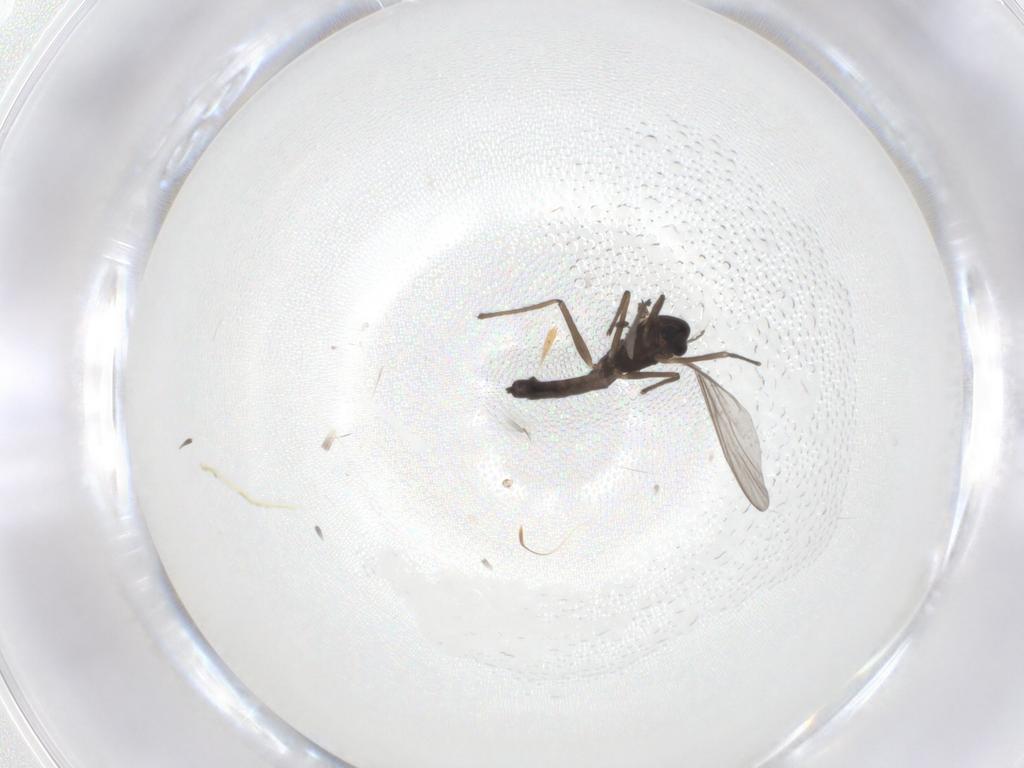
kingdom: Animalia
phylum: Arthropoda
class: Insecta
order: Diptera
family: Chironomidae
